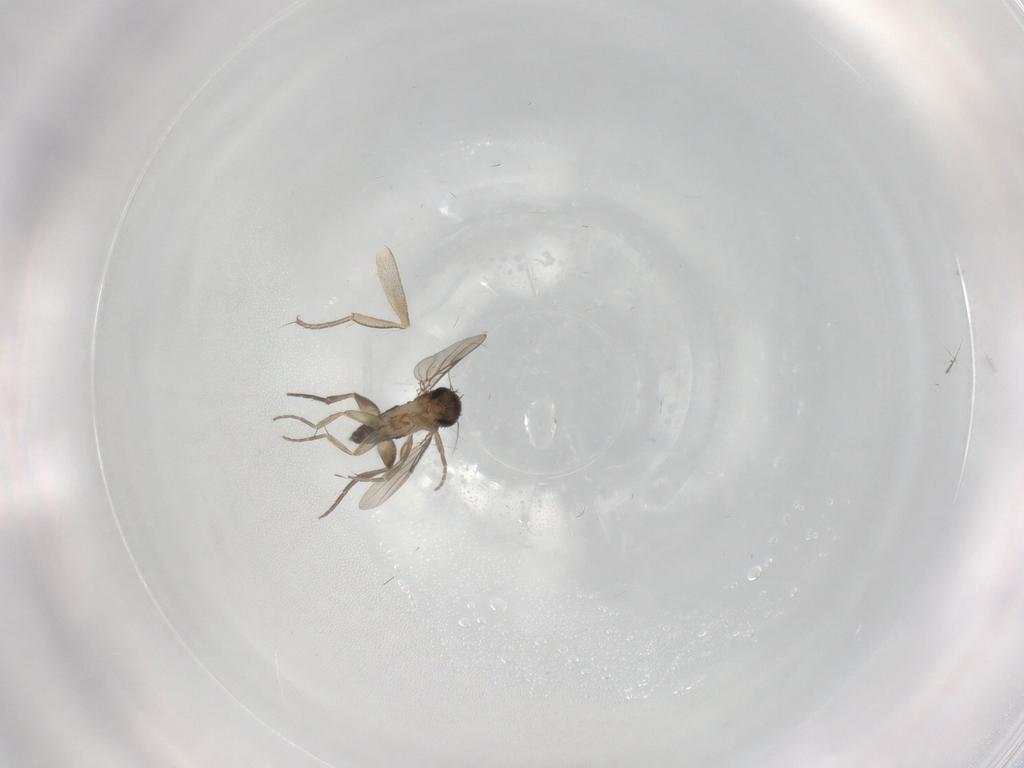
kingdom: Animalia
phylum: Arthropoda
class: Insecta
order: Diptera
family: Phoridae
